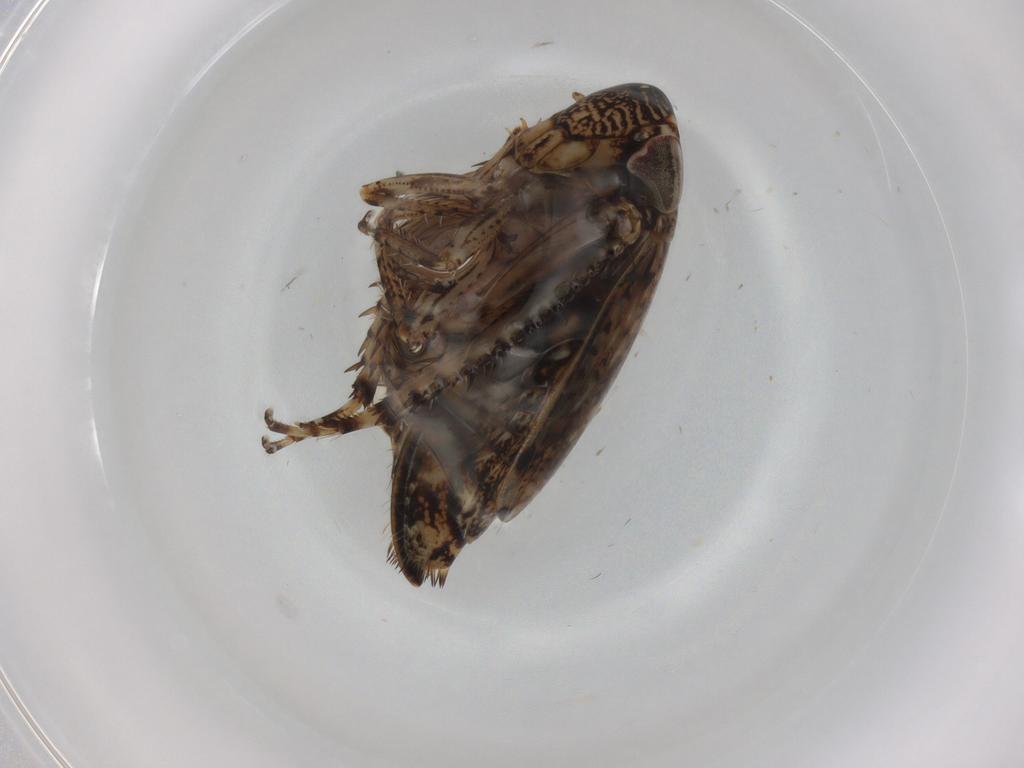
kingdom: Animalia
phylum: Arthropoda
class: Insecta
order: Hemiptera
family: Cicadellidae
